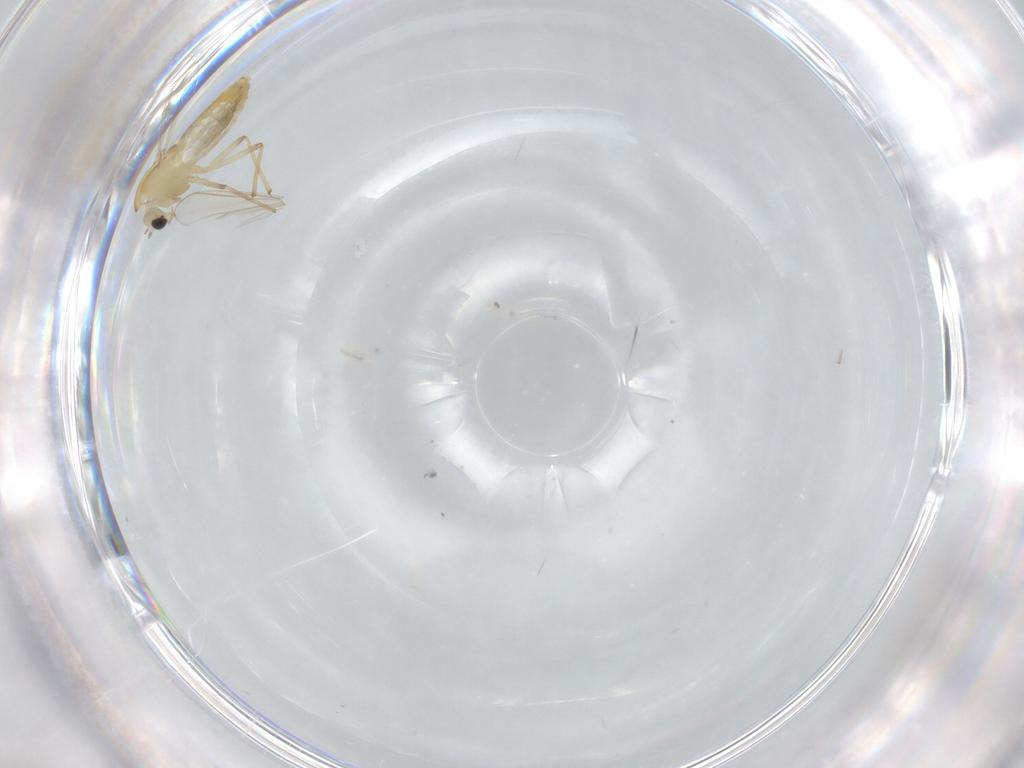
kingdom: Animalia
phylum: Arthropoda
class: Insecta
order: Diptera
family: Chironomidae
